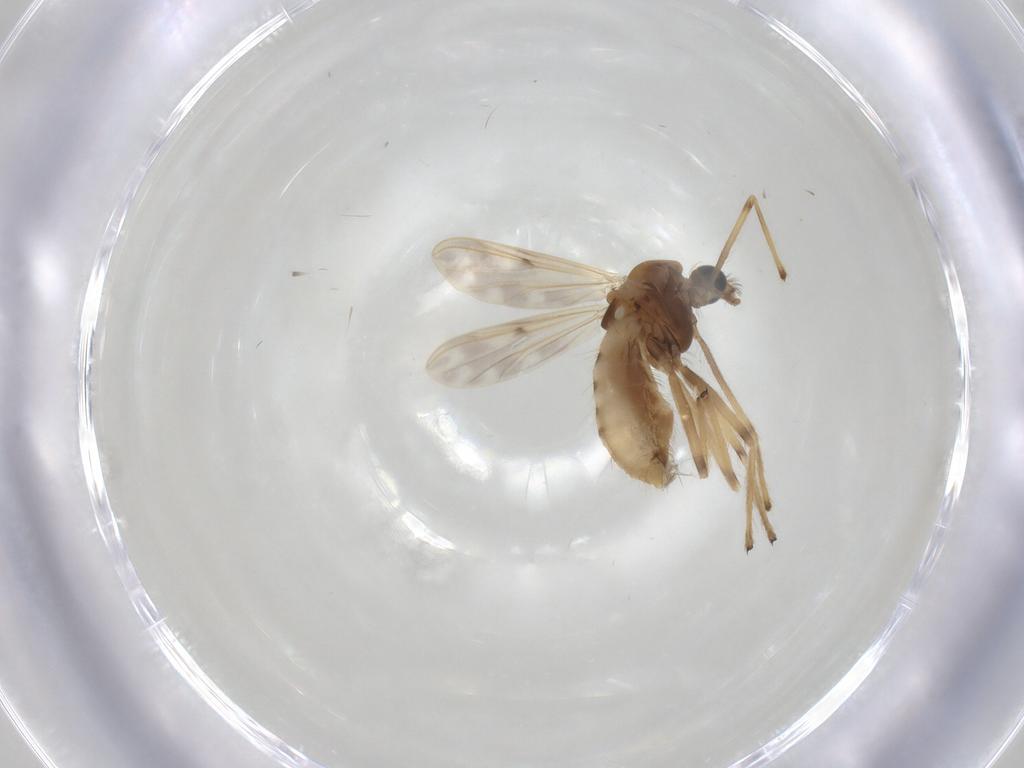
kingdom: Animalia
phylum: Arthropoda
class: Insecta
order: Diptera
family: Chironomidae
